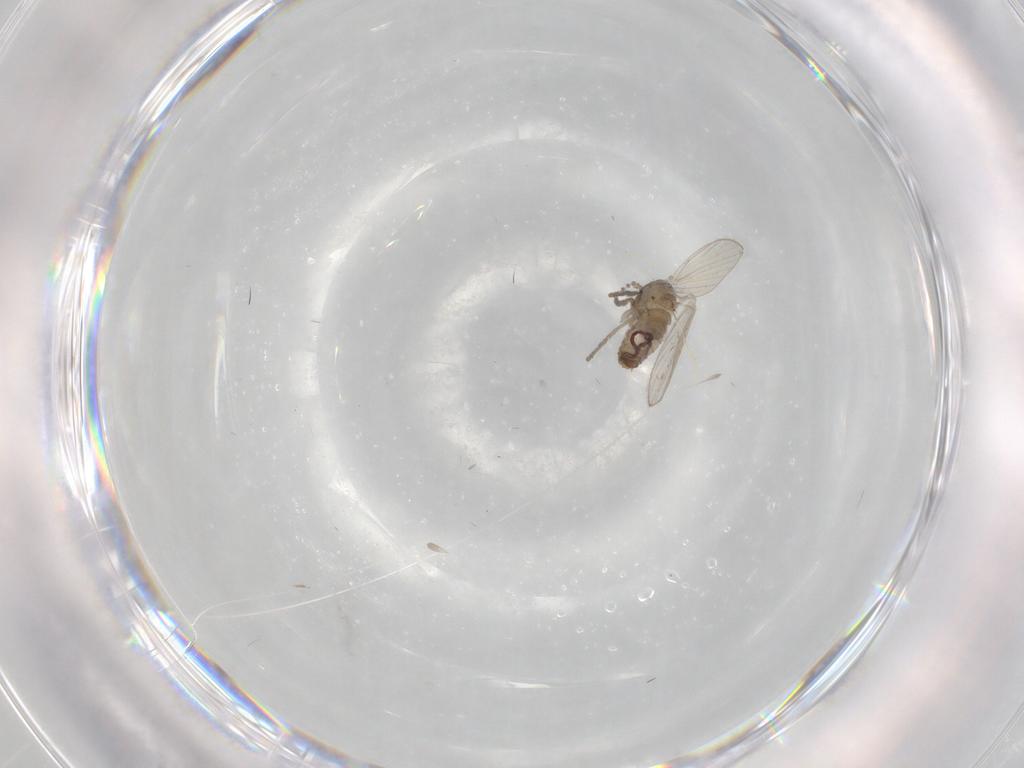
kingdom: Animalia
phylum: Arthropoda
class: Insecta
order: Diptera
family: Psychodidae
